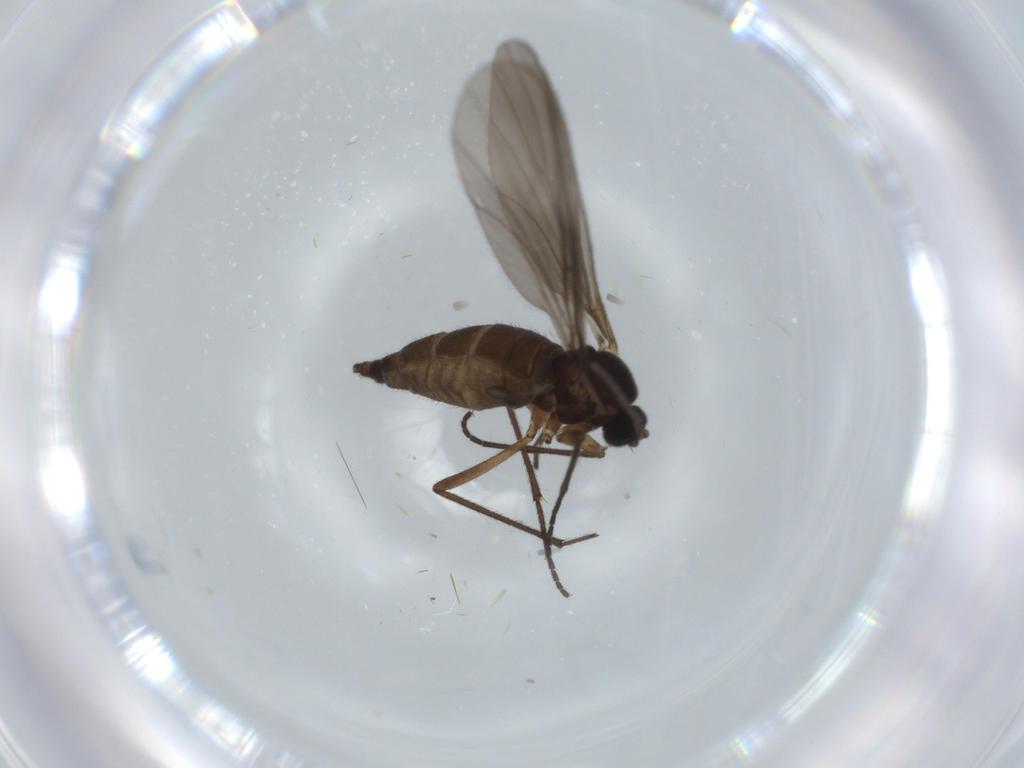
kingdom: Animalia
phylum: Arthropoda
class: Insecta
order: Diptera
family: Sciaridae
